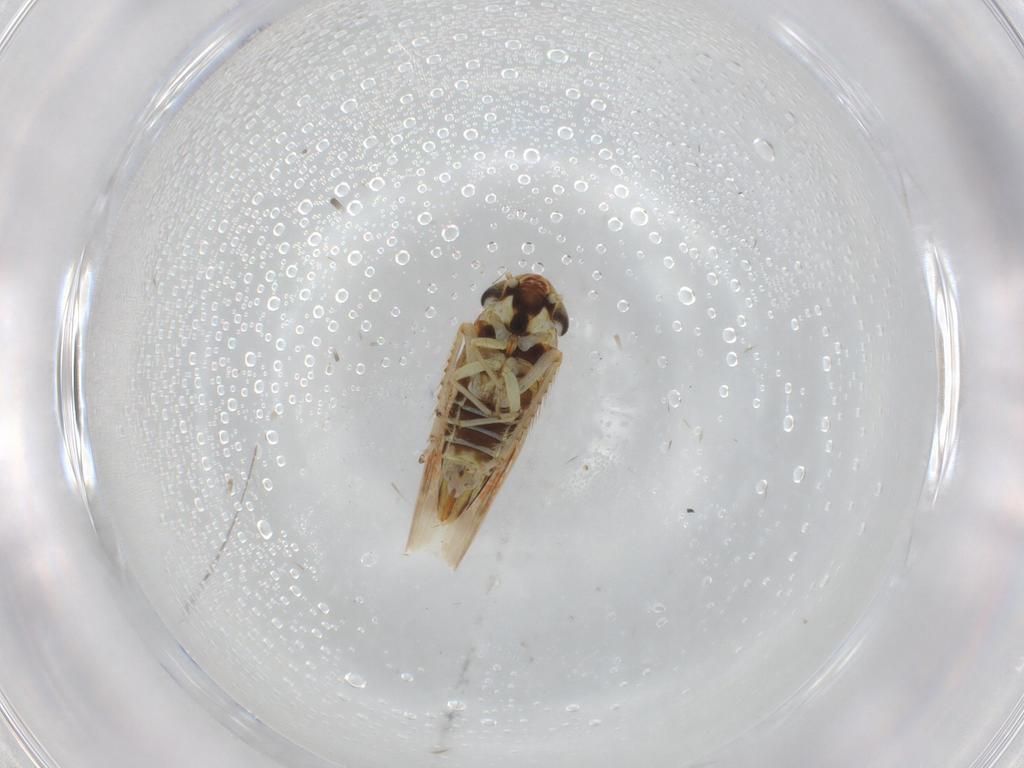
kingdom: Animalia
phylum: Arthropoda
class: Insecta
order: Hemiptera
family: Cicadellidae
